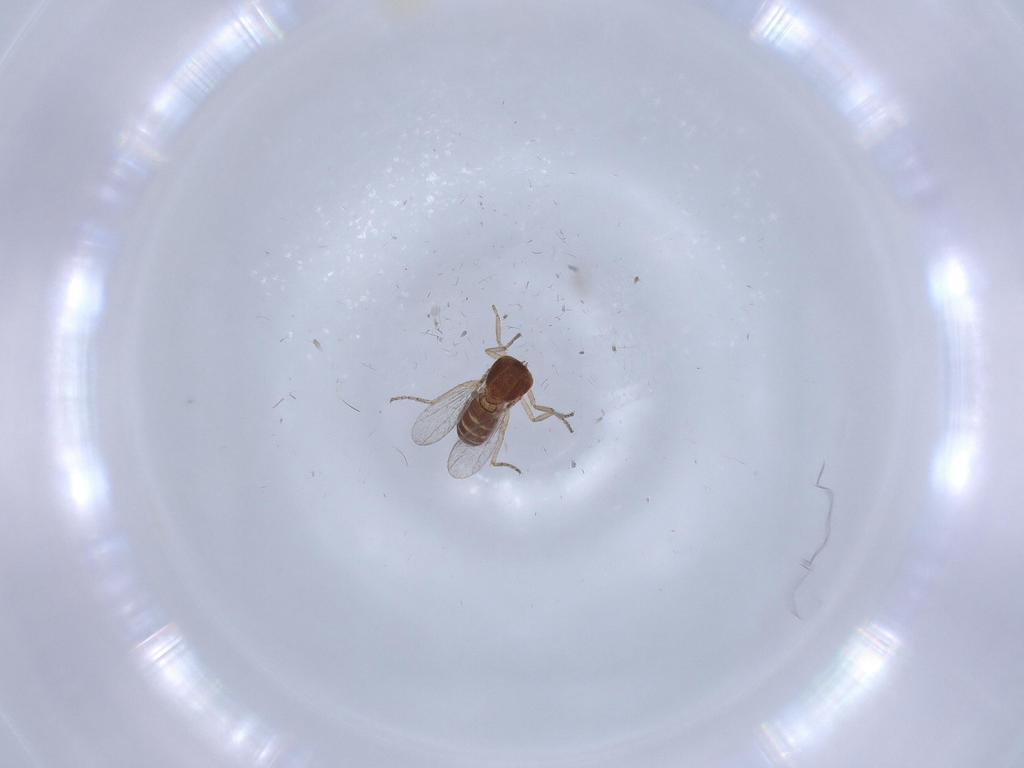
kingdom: Animalia
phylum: Arthropoda
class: Insecta
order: Diptera
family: Ceratopogonidae
